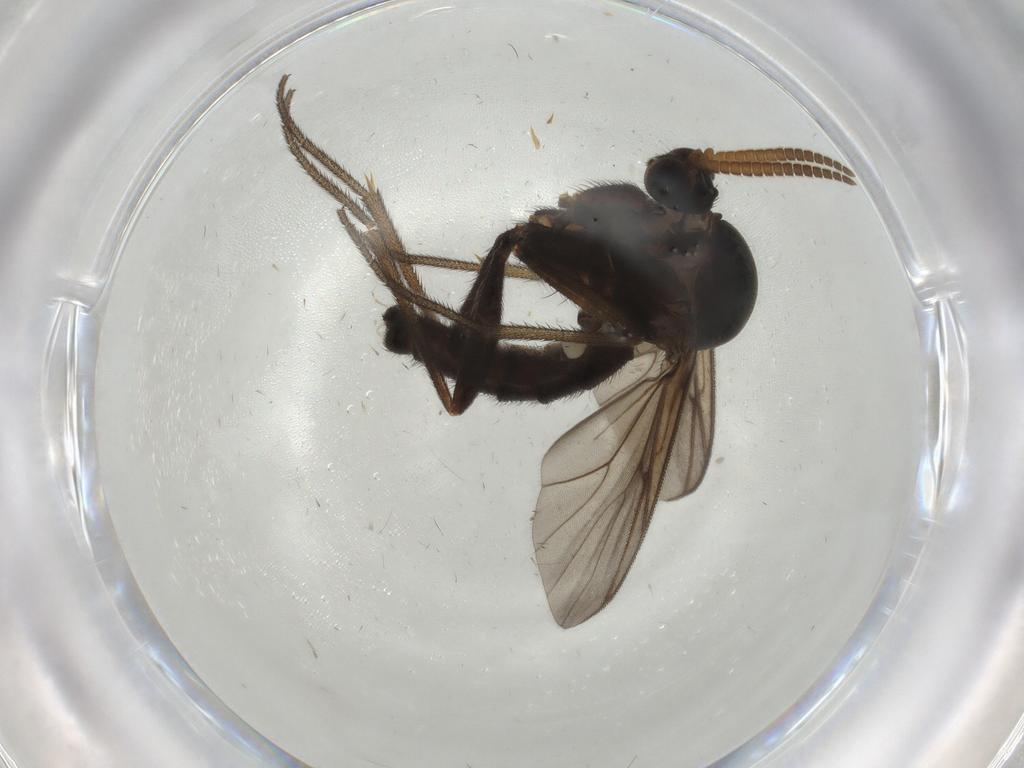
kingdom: Animalia
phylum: Arthropoda
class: Insecta
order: Diptera
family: Mycetophilidae
